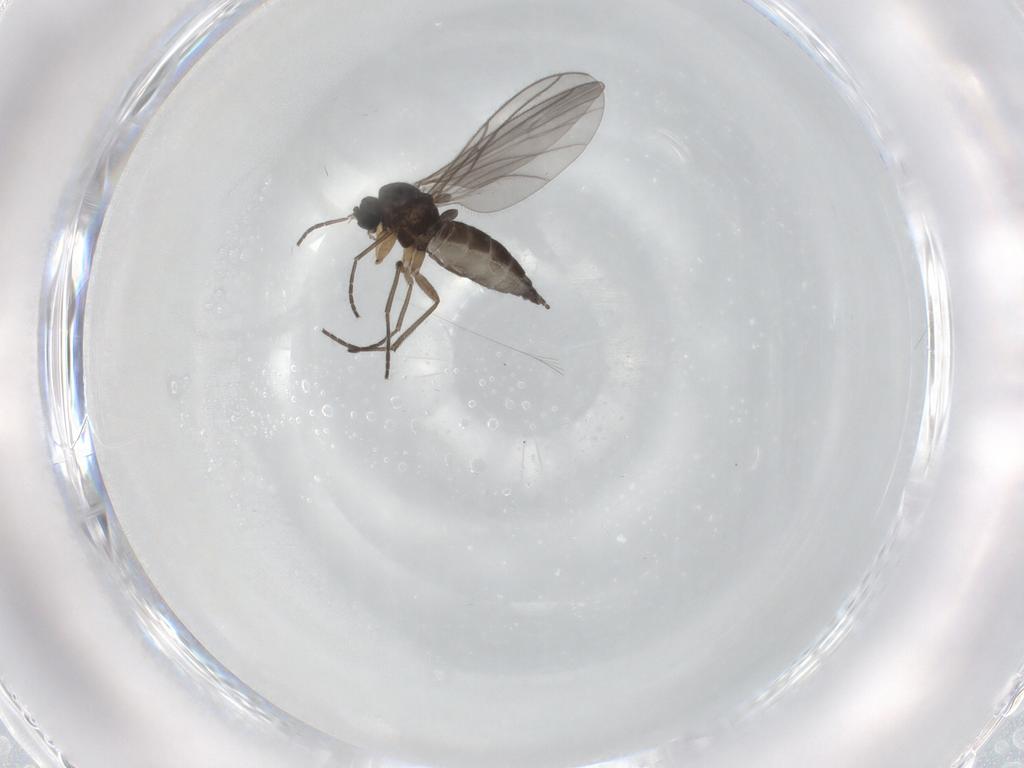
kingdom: Animalia
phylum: Arthropoda
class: Insecta
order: Diptera
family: Sciaridae
